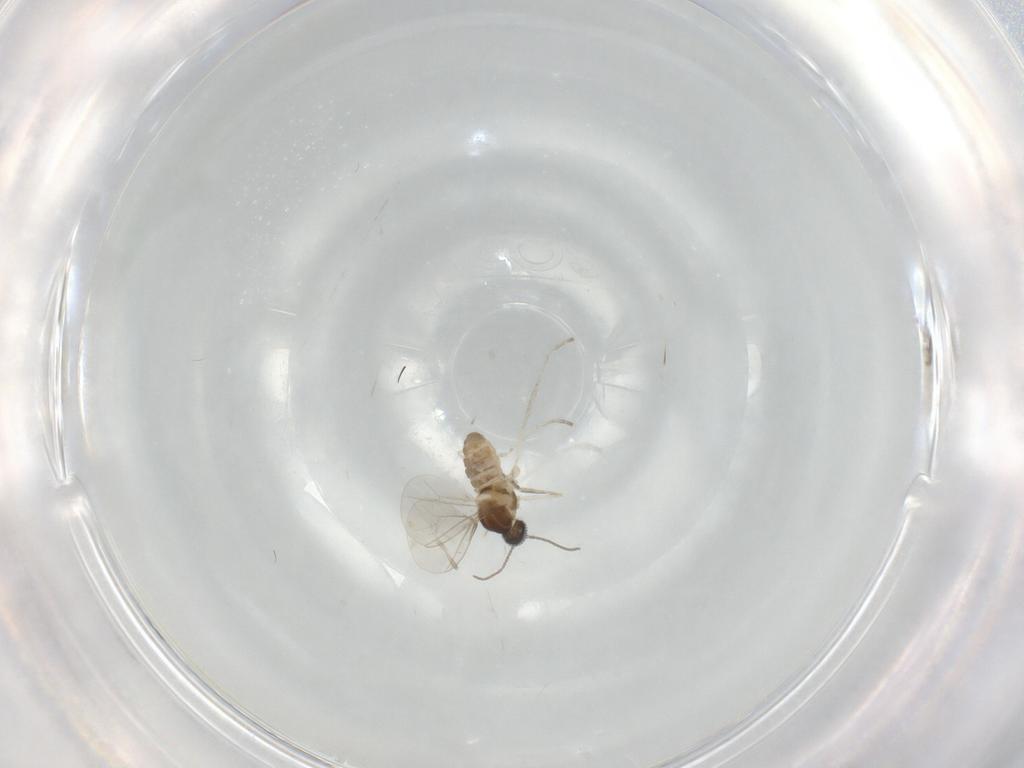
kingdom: Animalia
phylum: Arthropoda
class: Insecta
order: Diptera
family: Cecidomyiidae
